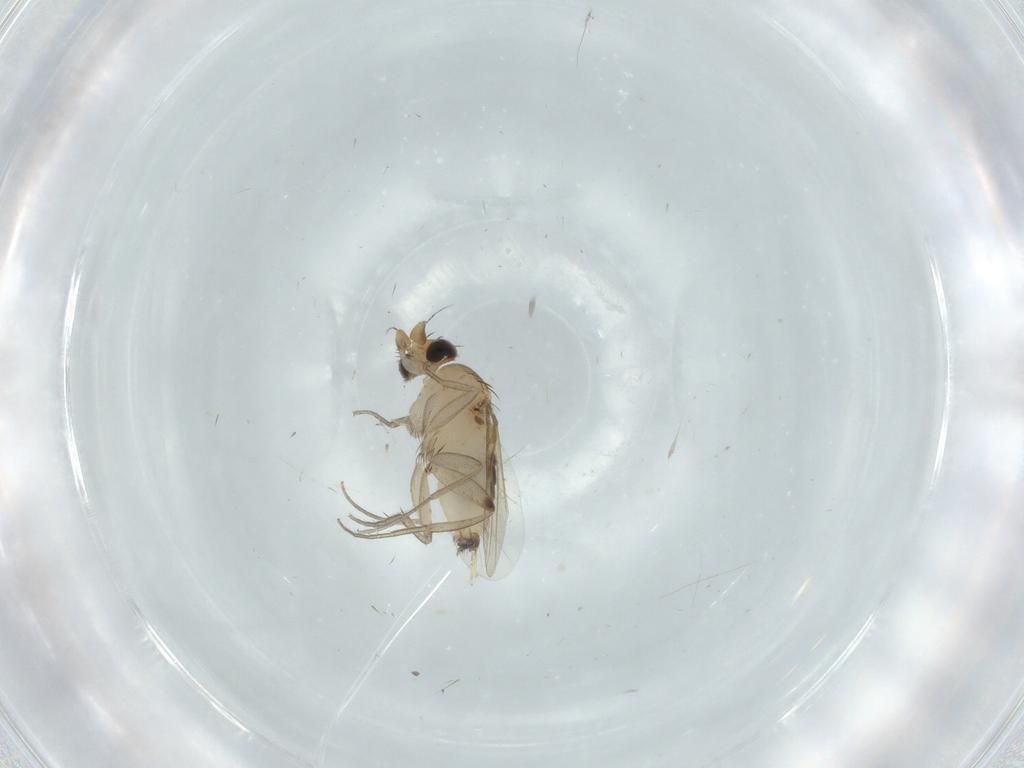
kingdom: Animalia
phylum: Arthropoda
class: Insecta
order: Diptera
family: Phoridae
